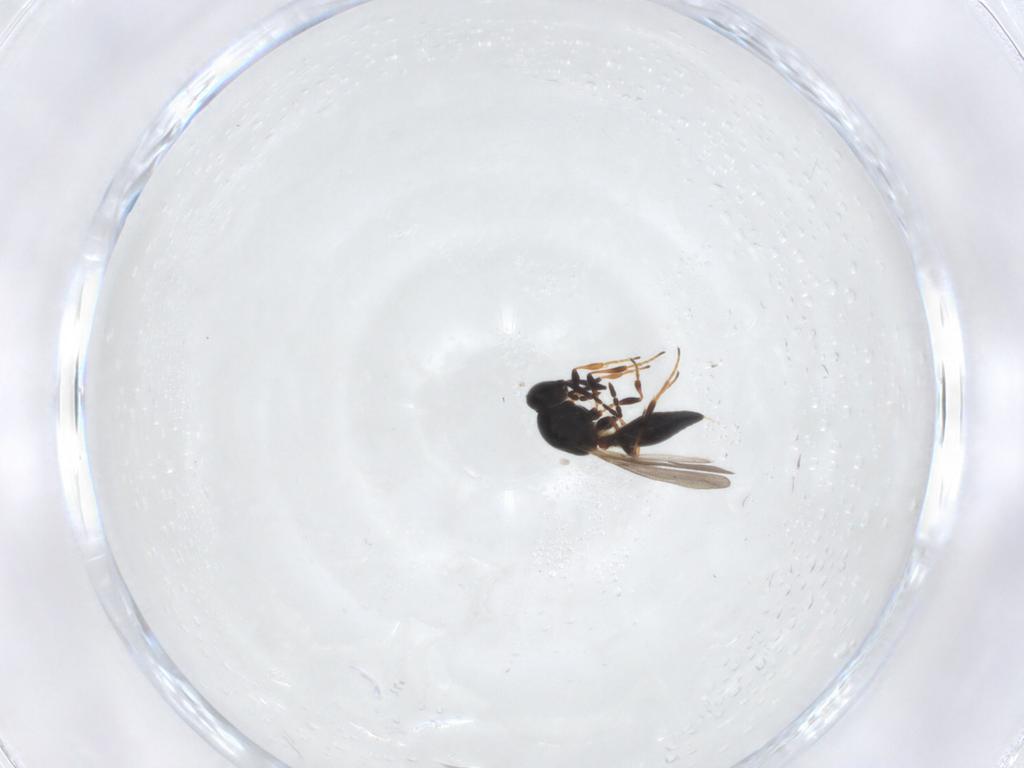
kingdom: Animalia
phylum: Arthropoda
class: Insecta
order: Hymenoptera
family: Platygastridae
